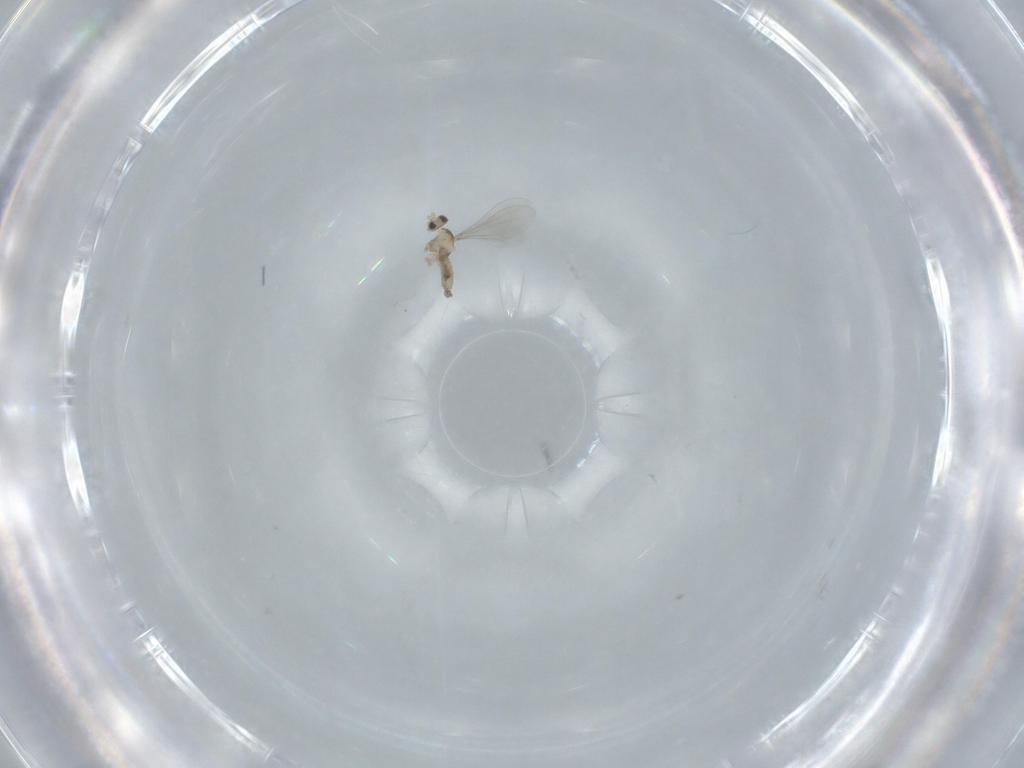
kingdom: Animalia
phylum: Arthropoda
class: Insecta
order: Diptera
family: Cecidomyiidae
